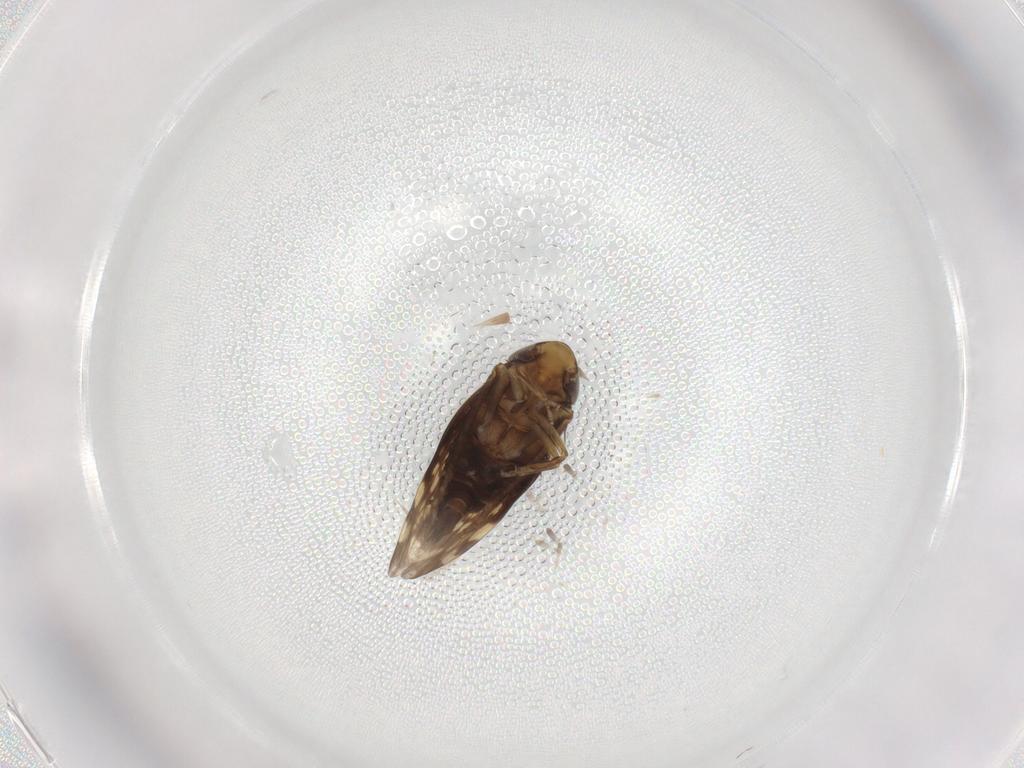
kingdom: Animalia
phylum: Arthropoda
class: Insecta
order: Hemiptera
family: Cicadellidae
